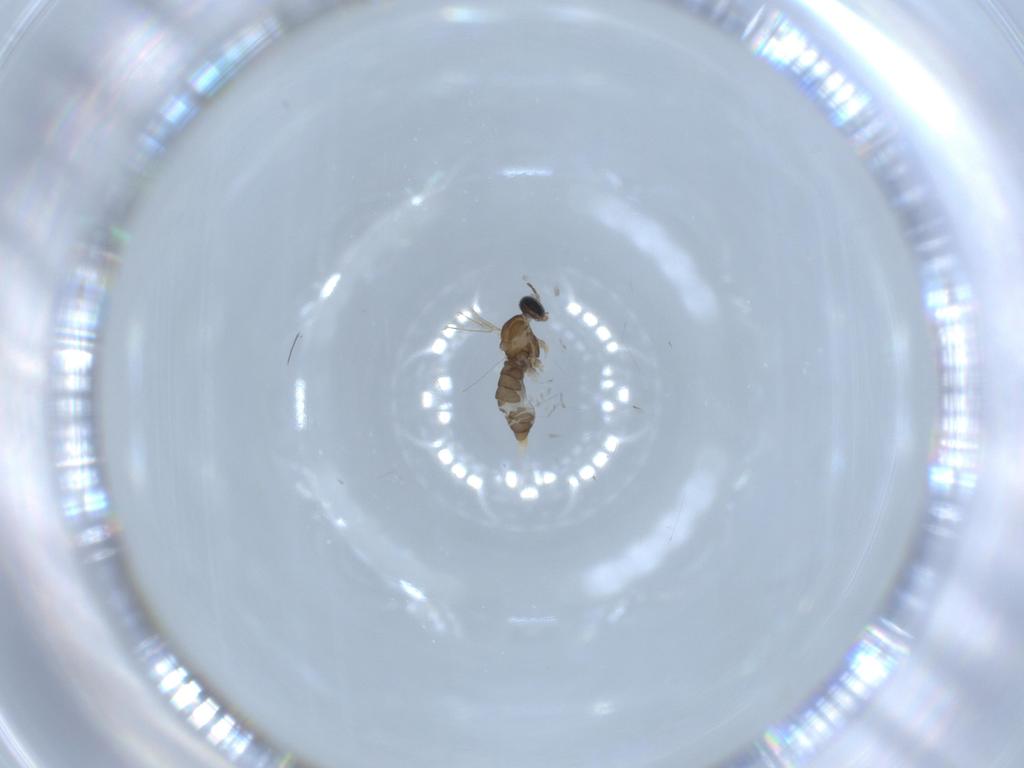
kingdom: Animalia
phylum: Arthropoda
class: Insecta
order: Diptera
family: Cecidomyiidae
